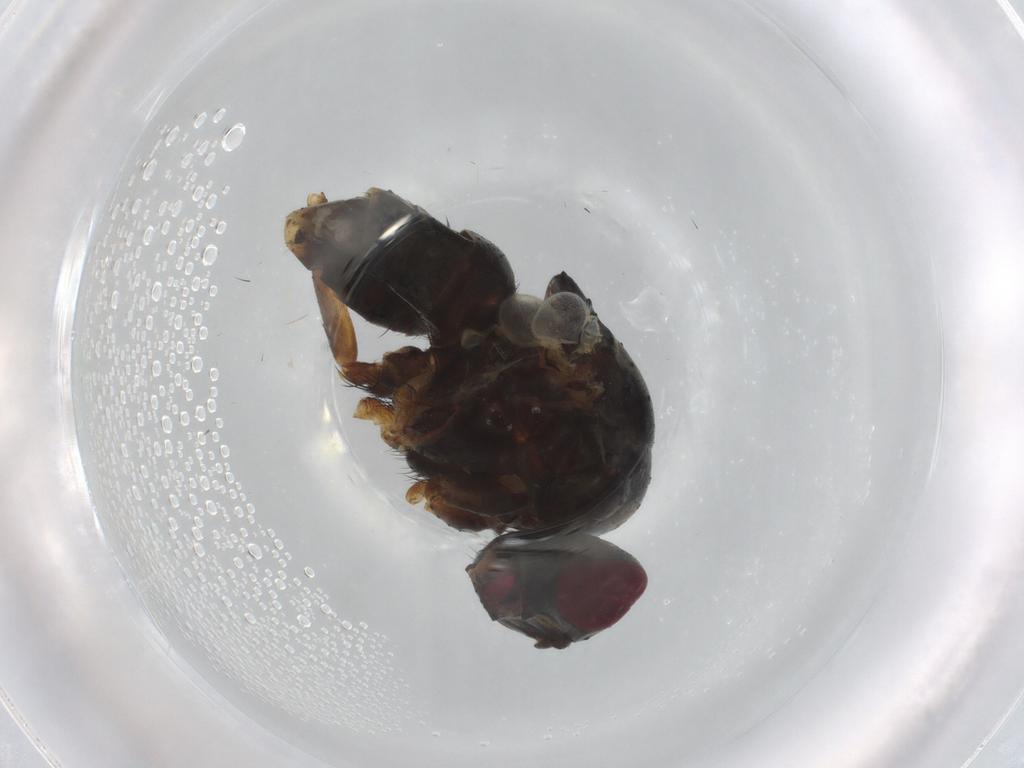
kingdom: Animalia
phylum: Arthropoda
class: Insecta
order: Diptera
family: Muscidae
